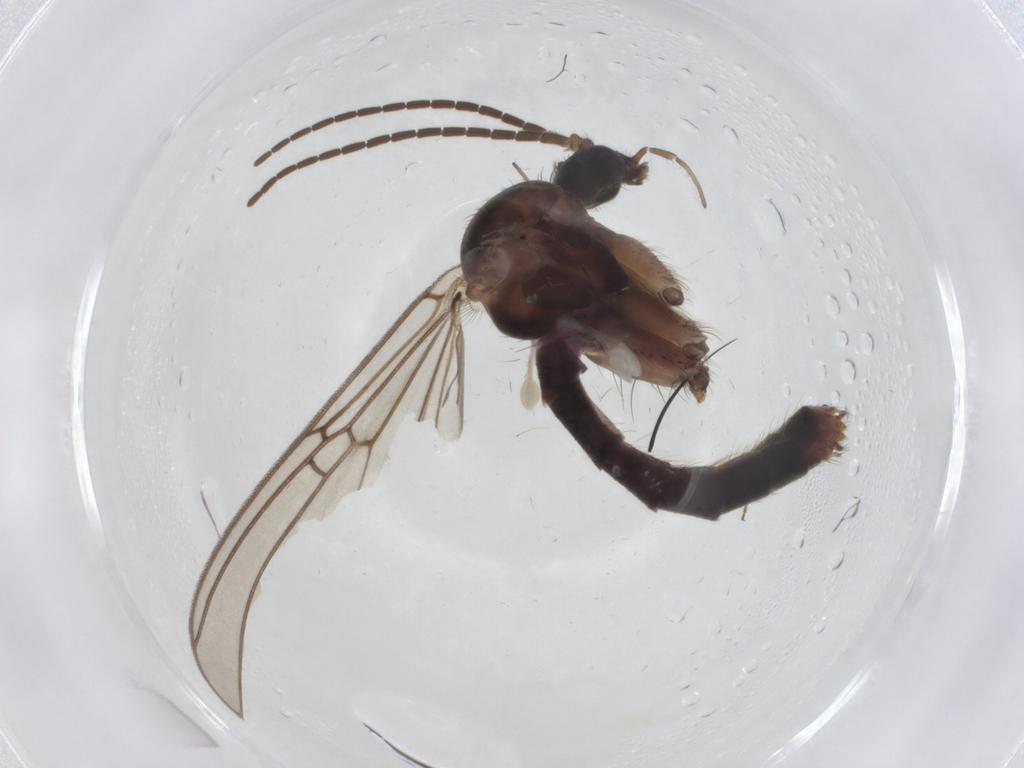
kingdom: Animalia
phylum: Arthropoda
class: Insecta
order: Diptera
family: Mycetophilidae
